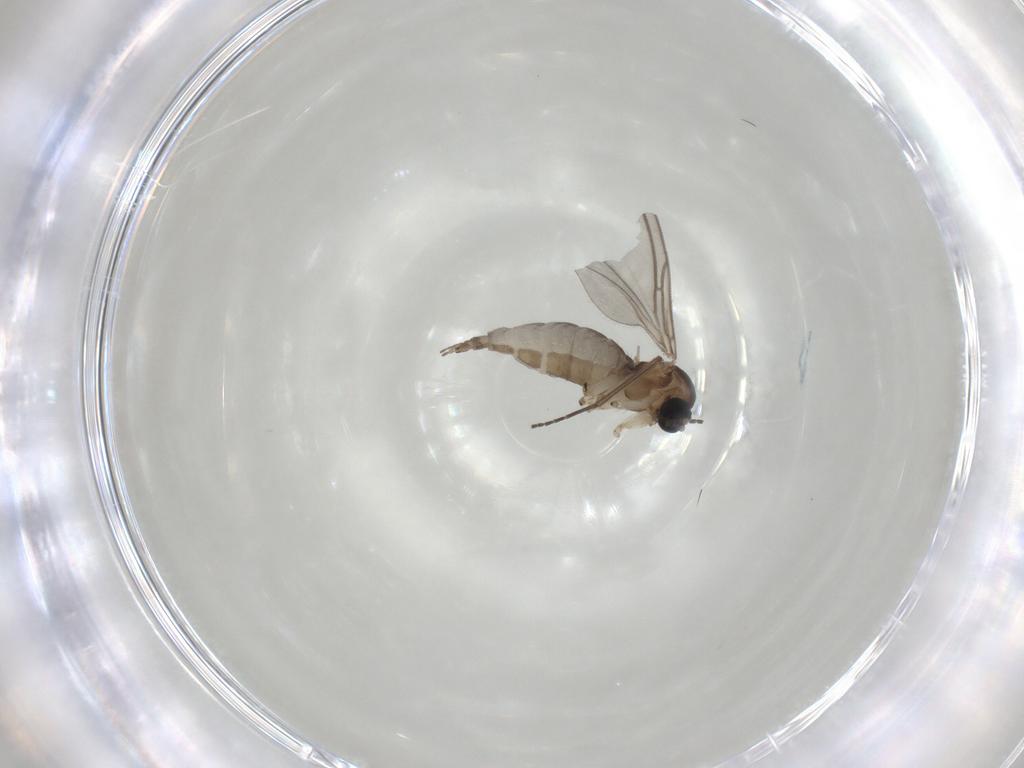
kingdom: Animalia
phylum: Arthropoda
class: Insecta
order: Diptera
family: Sciaridae
